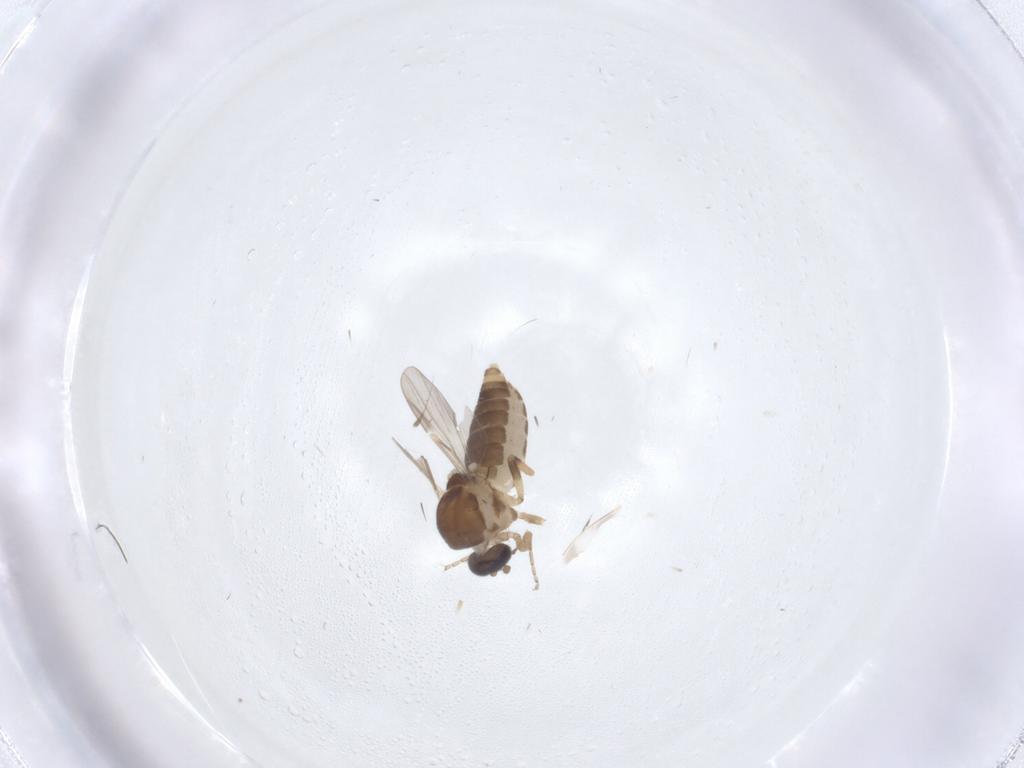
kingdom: Animalia
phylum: Arthropoda
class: Insecta
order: Diptera
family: Ceratopogonidae
